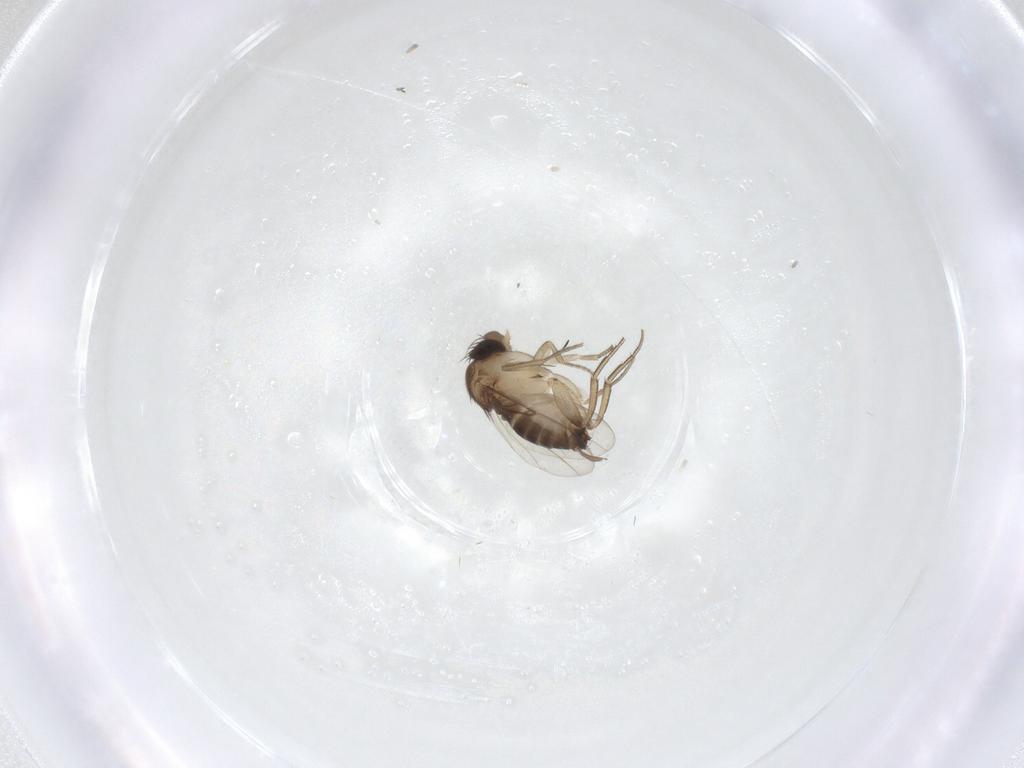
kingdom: Animalia
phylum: Arthropoda
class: Insecta
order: Diptera
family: Phoridae
